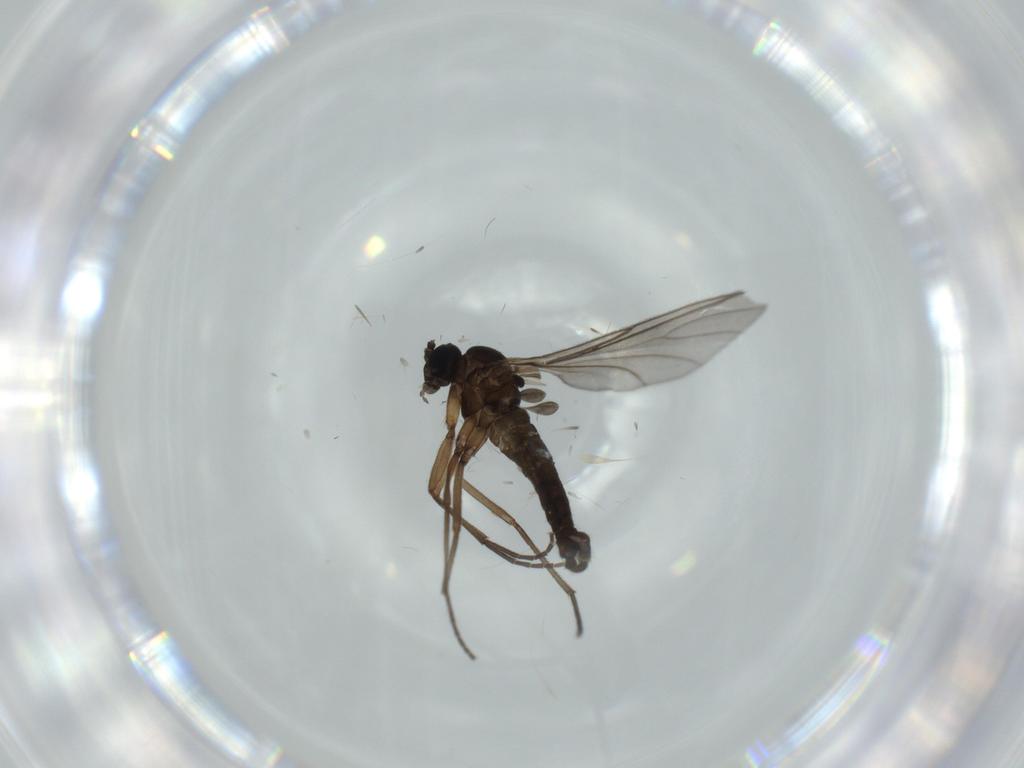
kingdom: Animalia
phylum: Arthropoda
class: Insecta
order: Diptera
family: Sciaridae
